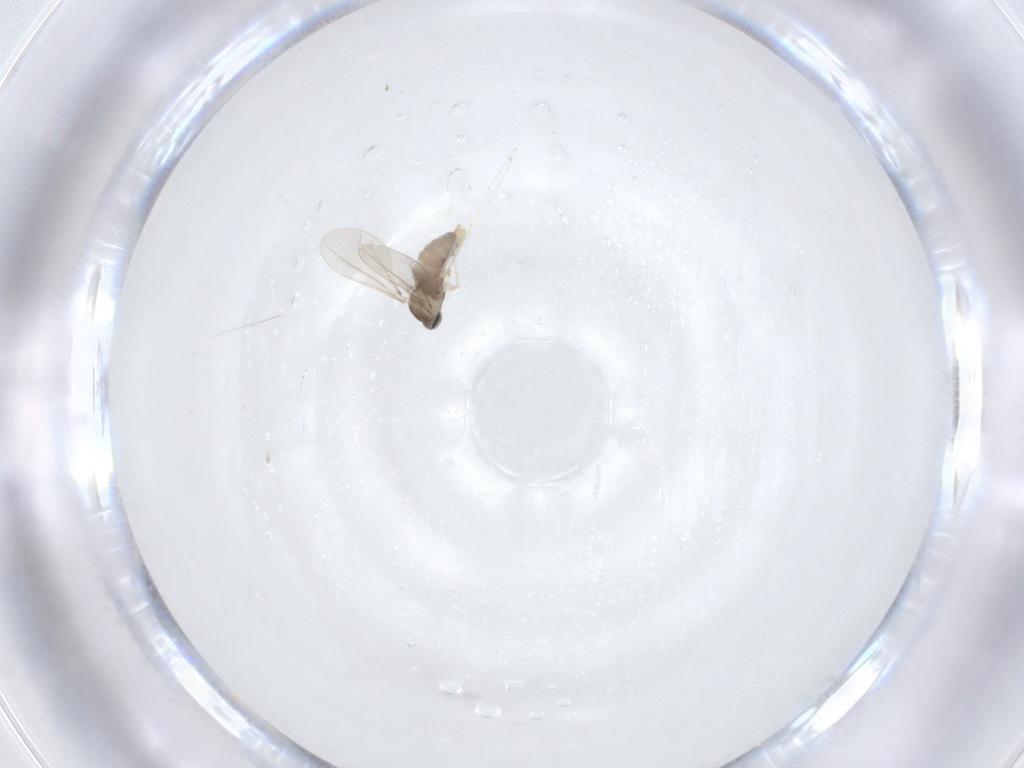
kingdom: Animalia
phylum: Arthropoda
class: Insecta
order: Diptera
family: Cecidomyiidae
